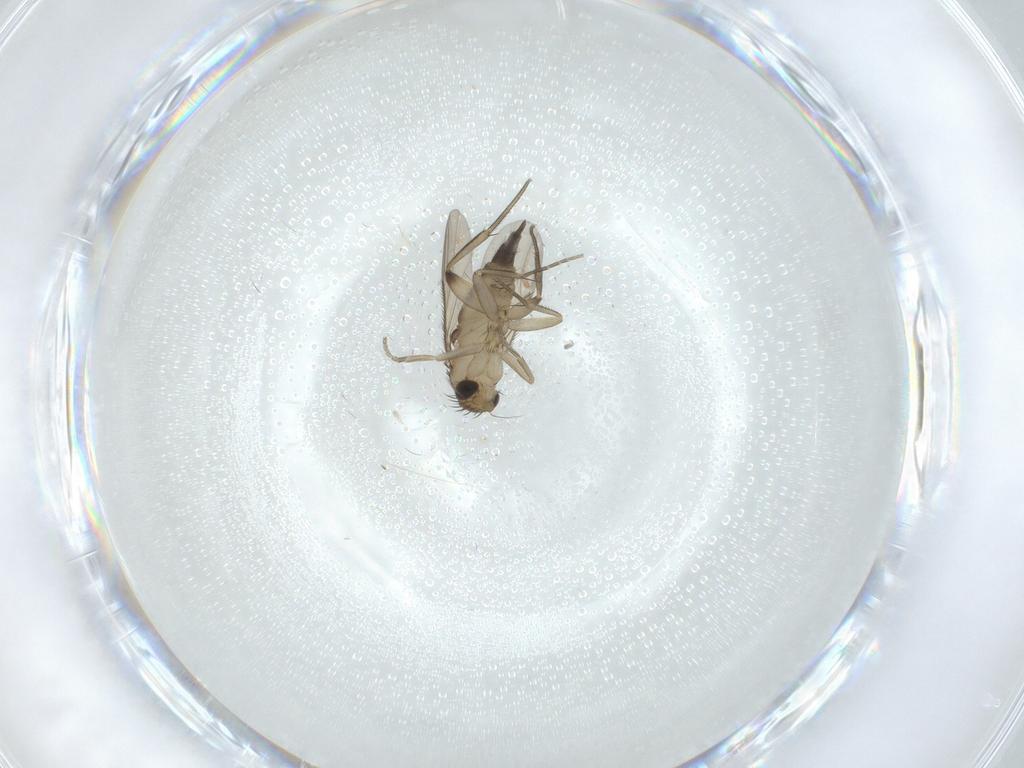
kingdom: Animalia
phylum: Arthropoda
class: Insecta
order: Diptera
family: Phoridae
